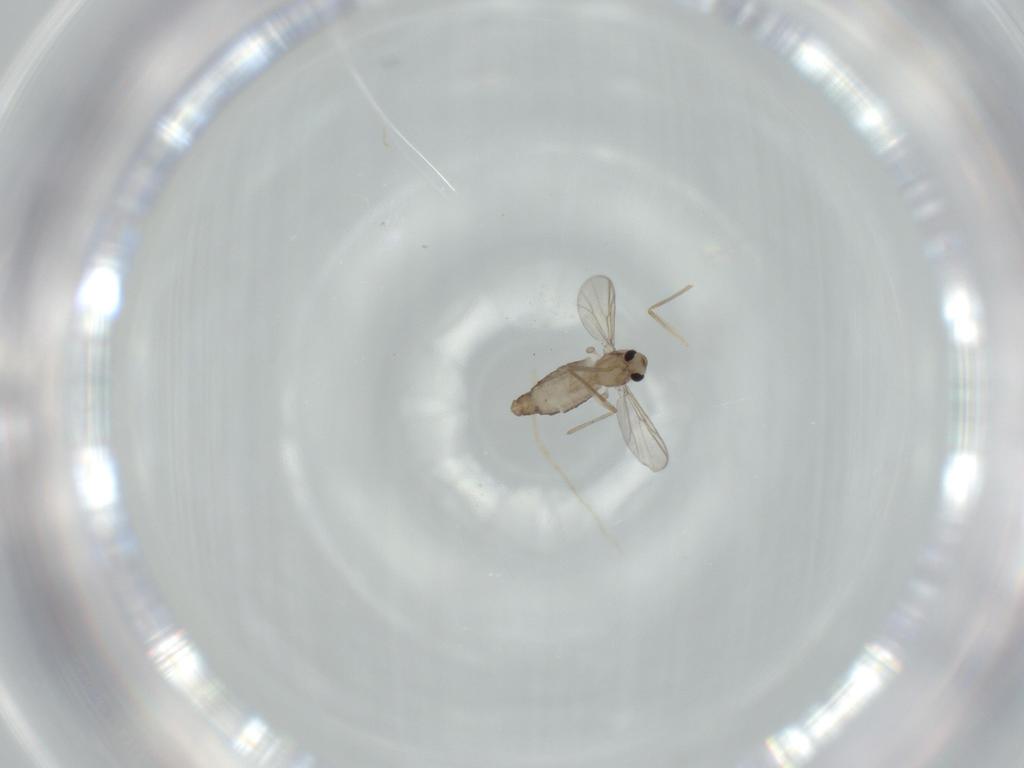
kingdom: Animalia
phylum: Arthropoda
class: Insecta
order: Diptera
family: Chironomidae
